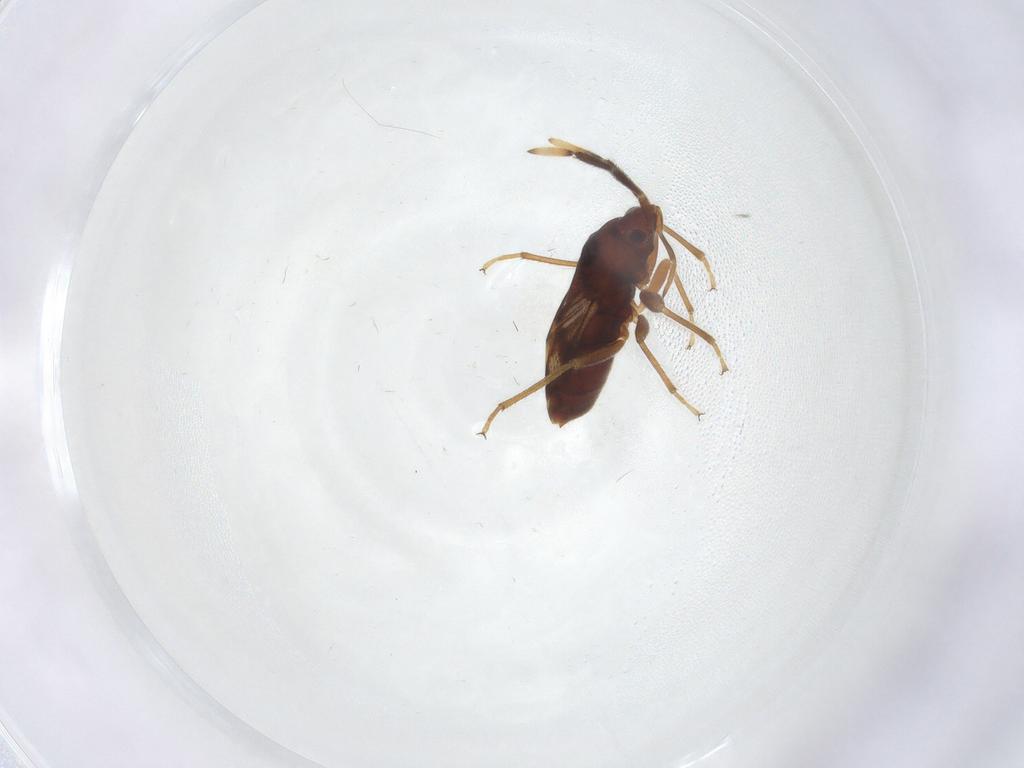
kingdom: Animalia
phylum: Arthropoda
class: Insecta
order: Hemiptera
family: Rhyparochromidae
